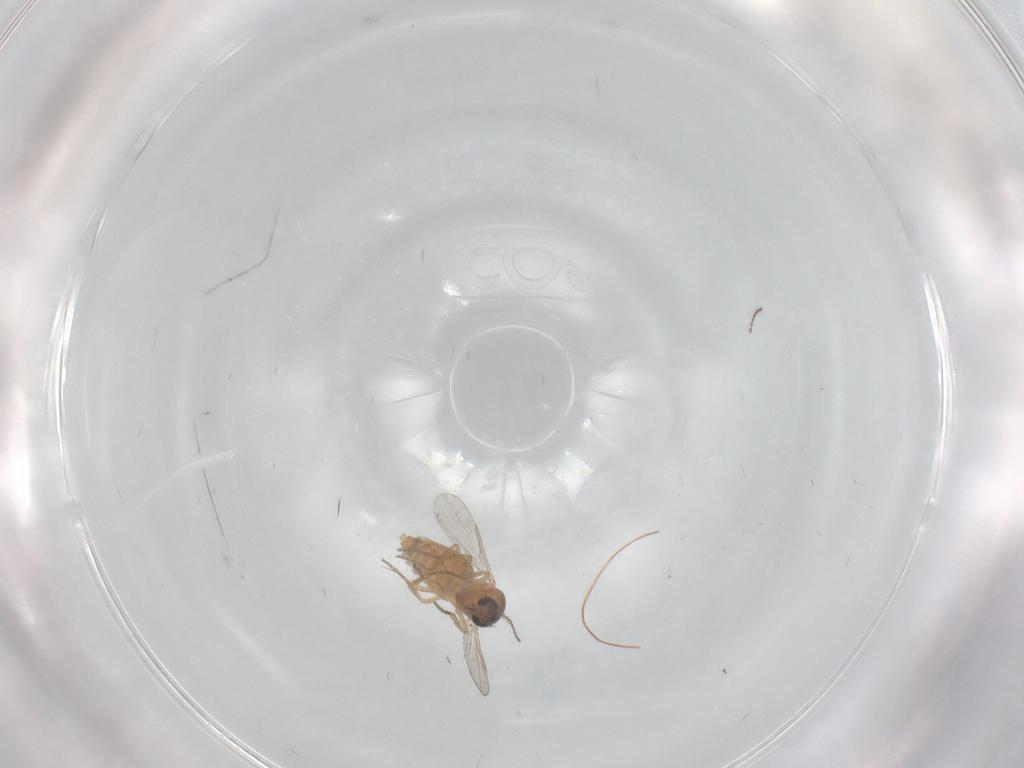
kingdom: Animalia
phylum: Arthropoda
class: Insecta
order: Diptera
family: Ceratopogonidae
